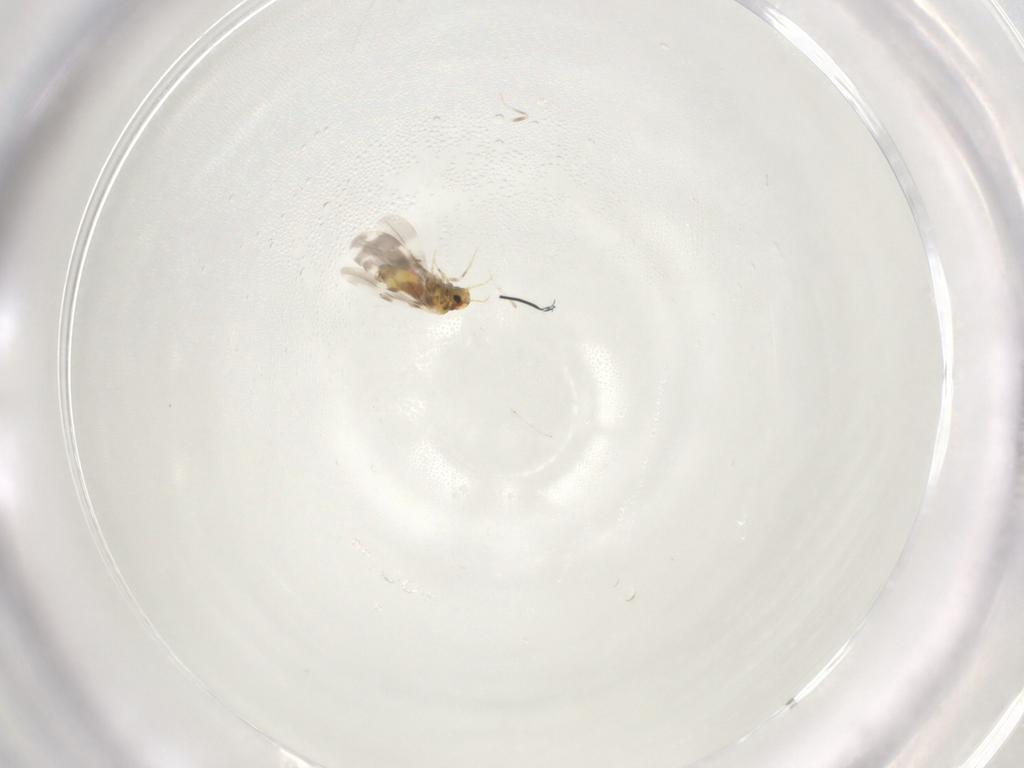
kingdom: Animalia
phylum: Arthropoda
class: Insecta
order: Hemiptera
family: Aleyrodidae
